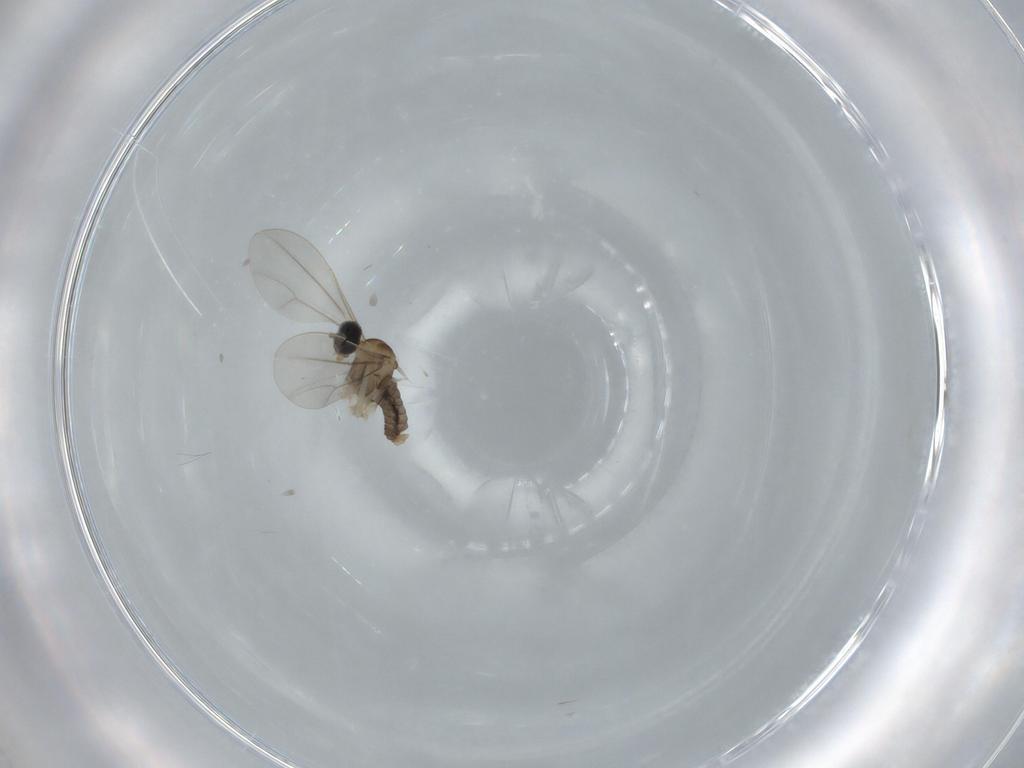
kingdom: Animalia
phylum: Arthropoda
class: Insecta
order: Diptera
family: Cecidomyiidae
